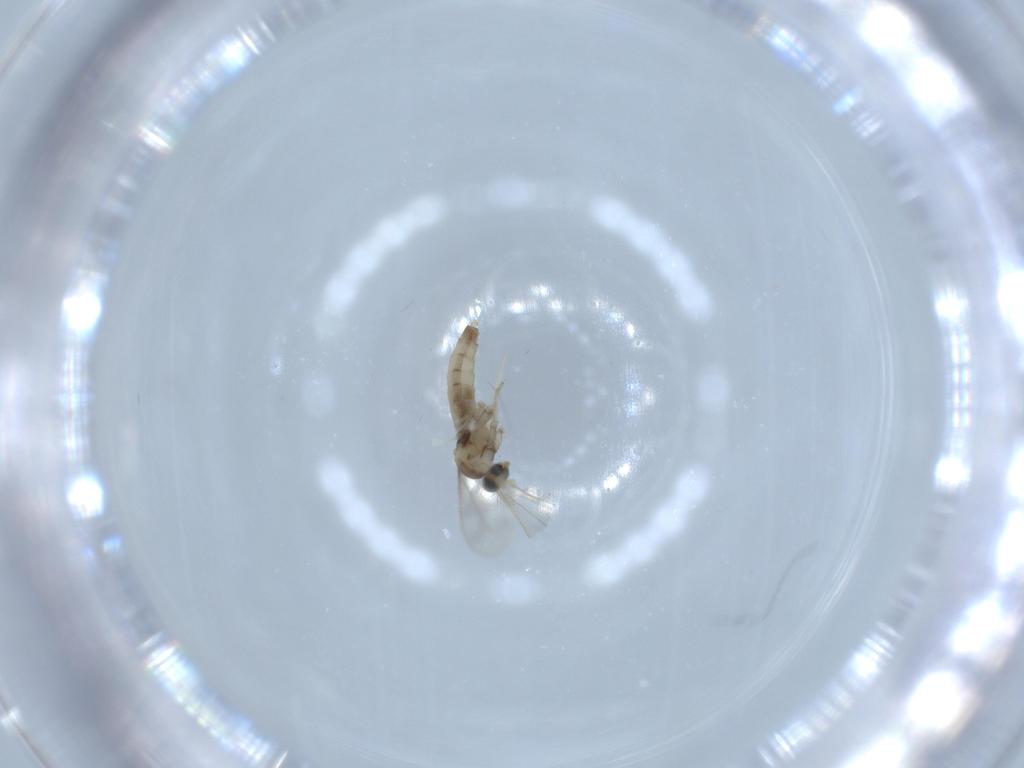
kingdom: Animalia
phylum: Arthropoda
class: Insecta
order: Diptera
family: Cecidomyiidae
